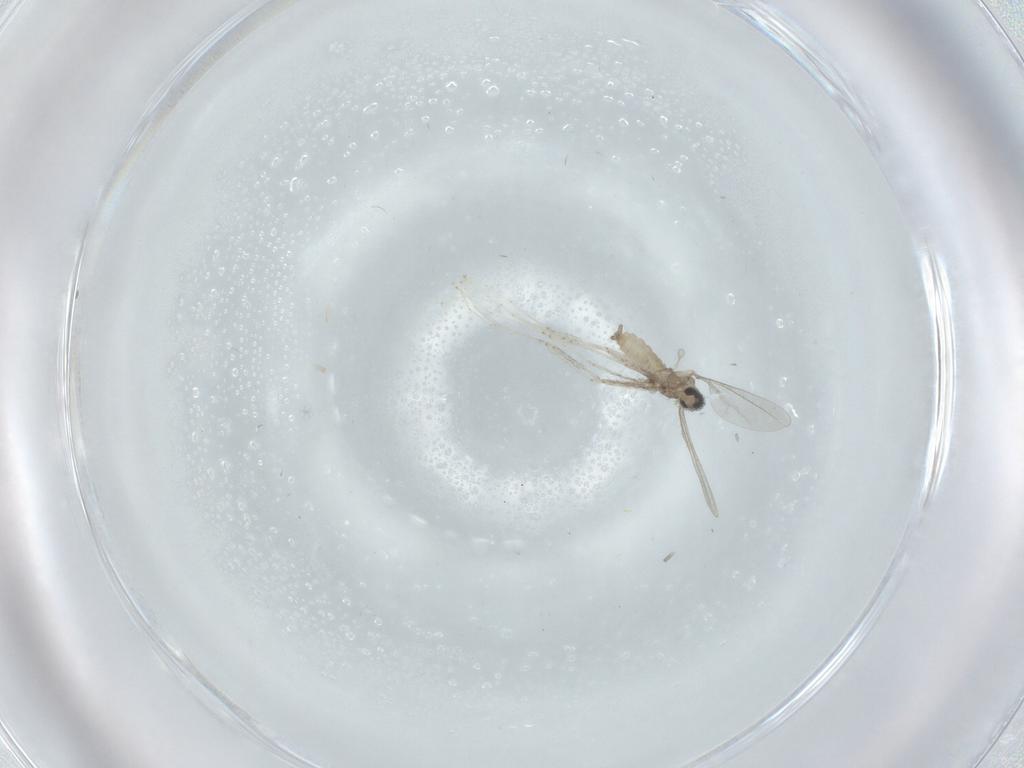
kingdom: Animalia
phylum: Arthropoda
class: Insecta
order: Diptera
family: Cecidomyiidae
